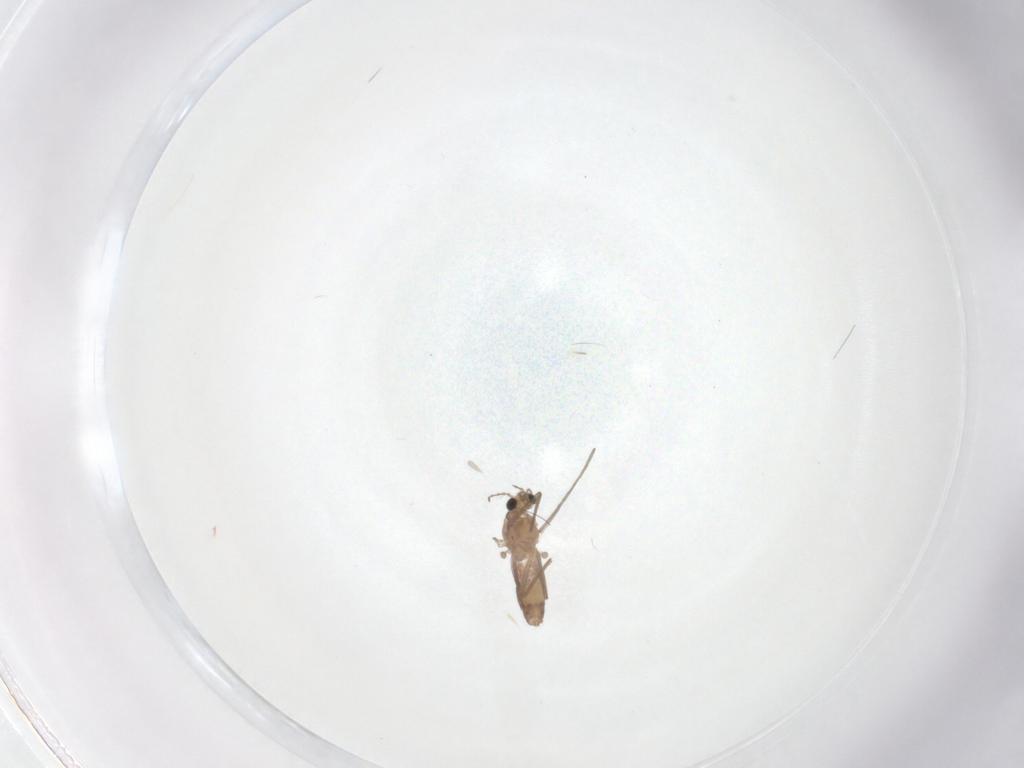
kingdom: Animalia
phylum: Arthropoda
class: Insecta
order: Diptera
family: Chironomidae
